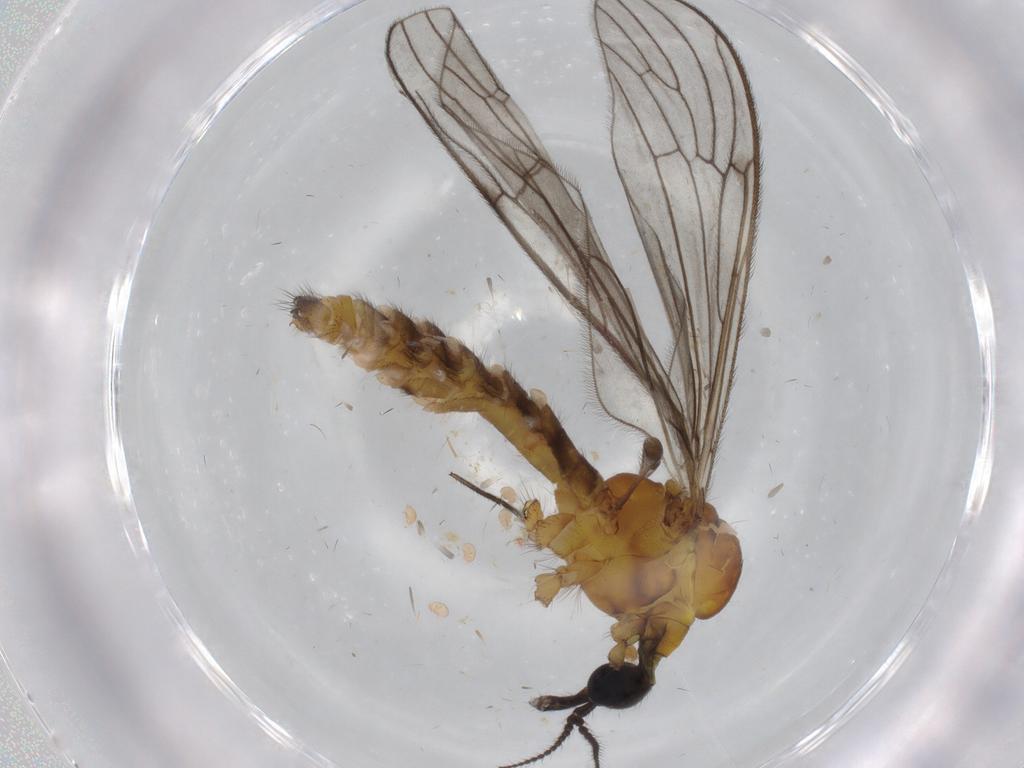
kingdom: Animalia
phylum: Arthropoda
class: Insecta
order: Diptera
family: Limoniidae
